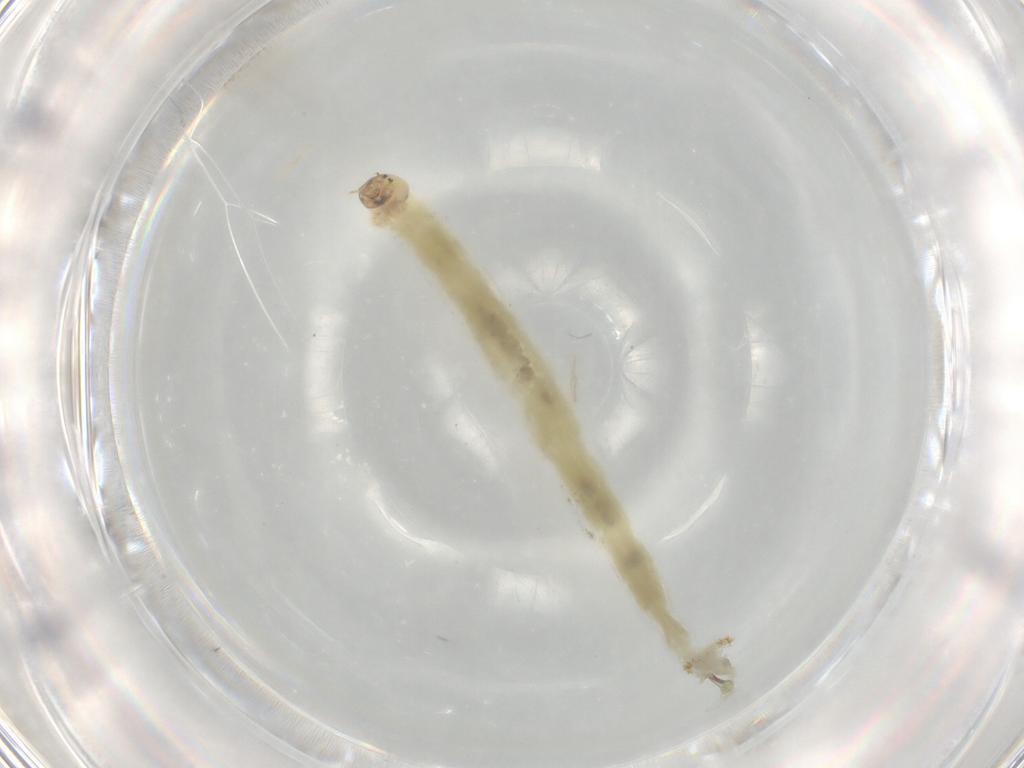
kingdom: Animalia
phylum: Arthropoda
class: Insecta
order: Diptera
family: Chironomidae
